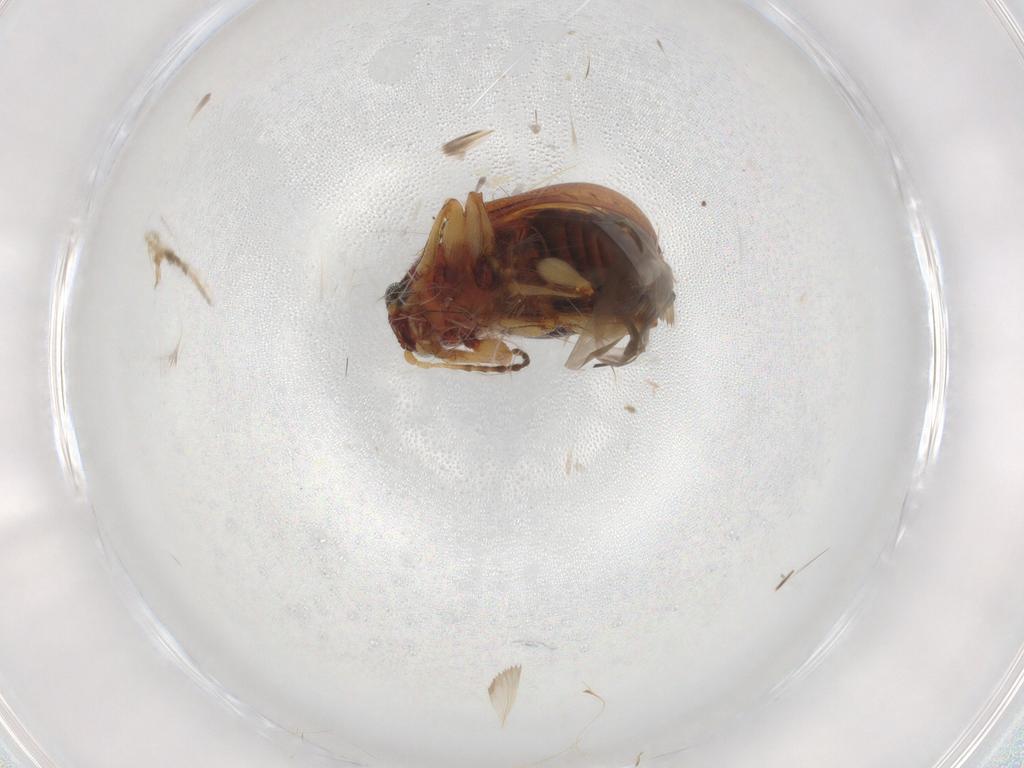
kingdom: Animalia
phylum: Arthropoda
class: Insecta
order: Coleoptera
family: Chrysomelidae
